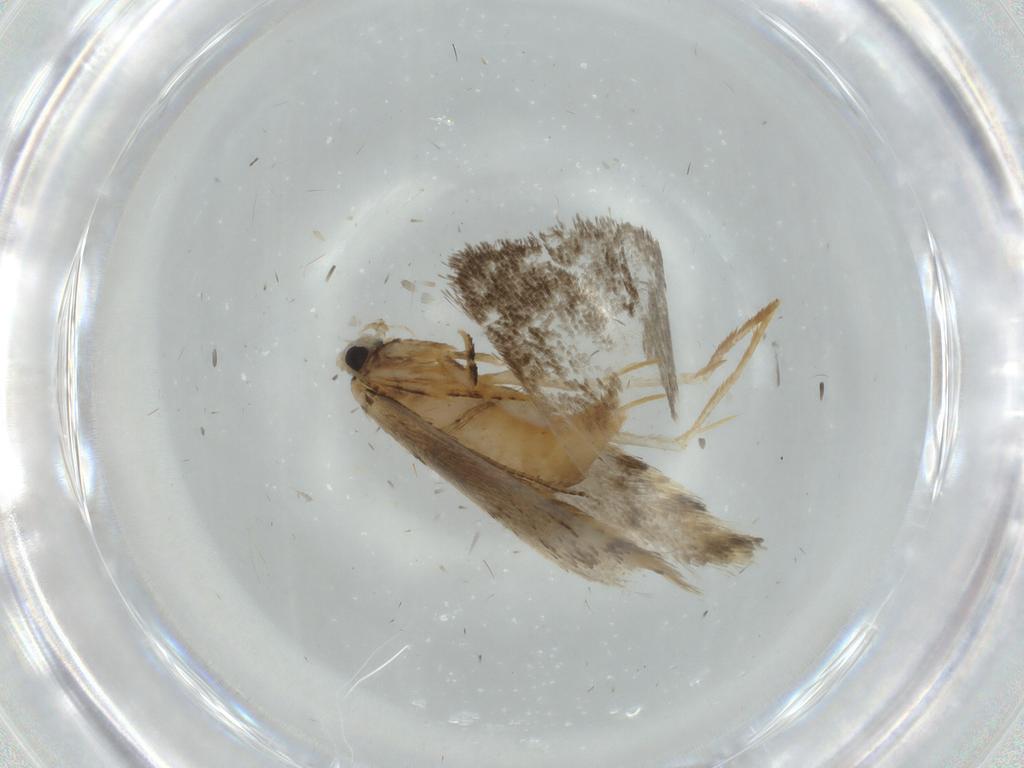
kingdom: Animalia
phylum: Arthropoda
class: Insecta
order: Lepidoptera
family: Tineidae
